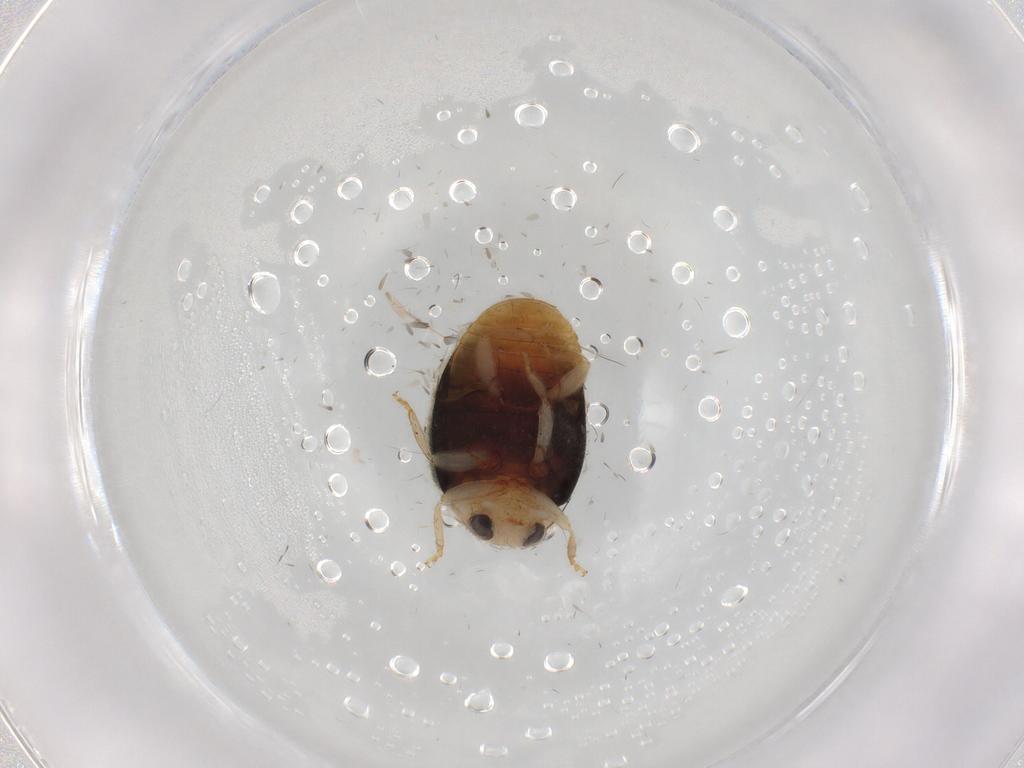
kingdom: Animalia
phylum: Arthropoda
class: Insecta
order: Coleoptera
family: Coccinellidae
